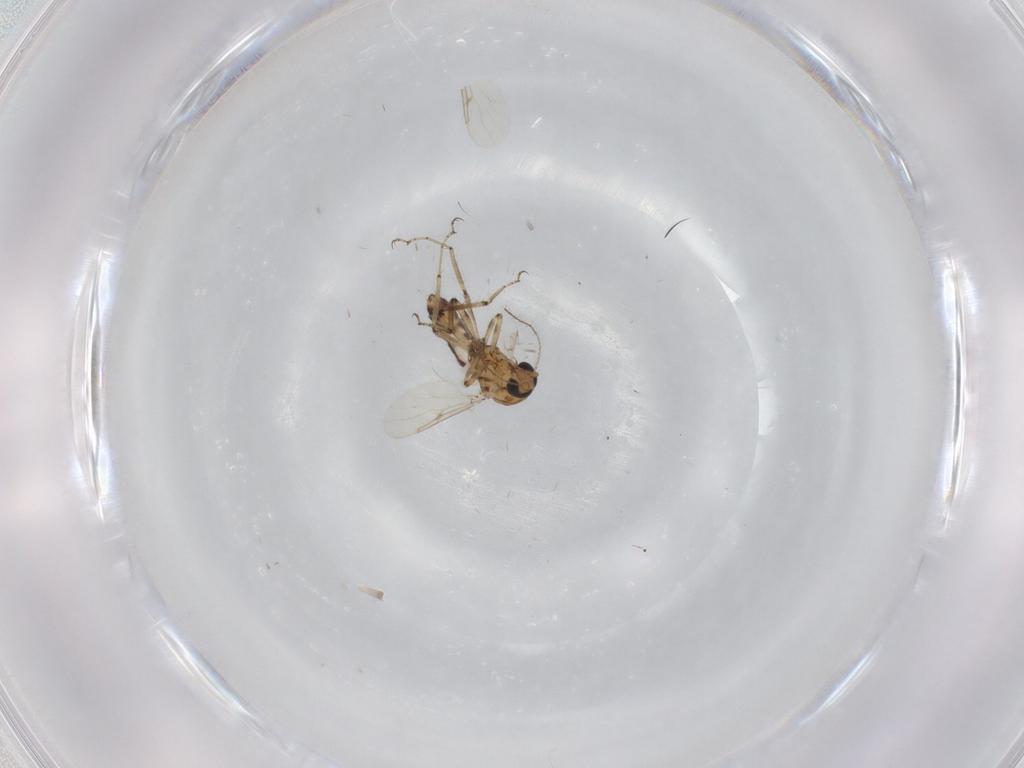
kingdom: Animalia
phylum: Arthropoda
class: Insecta
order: Diptera
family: Ceratopogonidae
